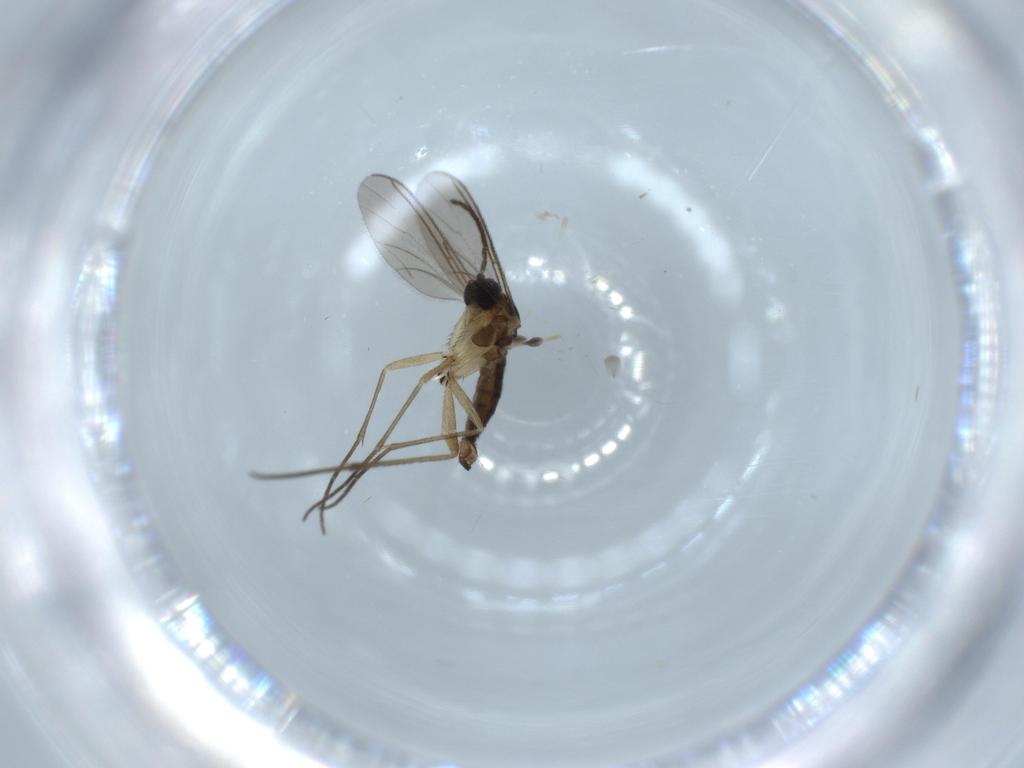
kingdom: Animalia
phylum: Arthropoda
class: Insecta
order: Diptera
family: Sciaridae
